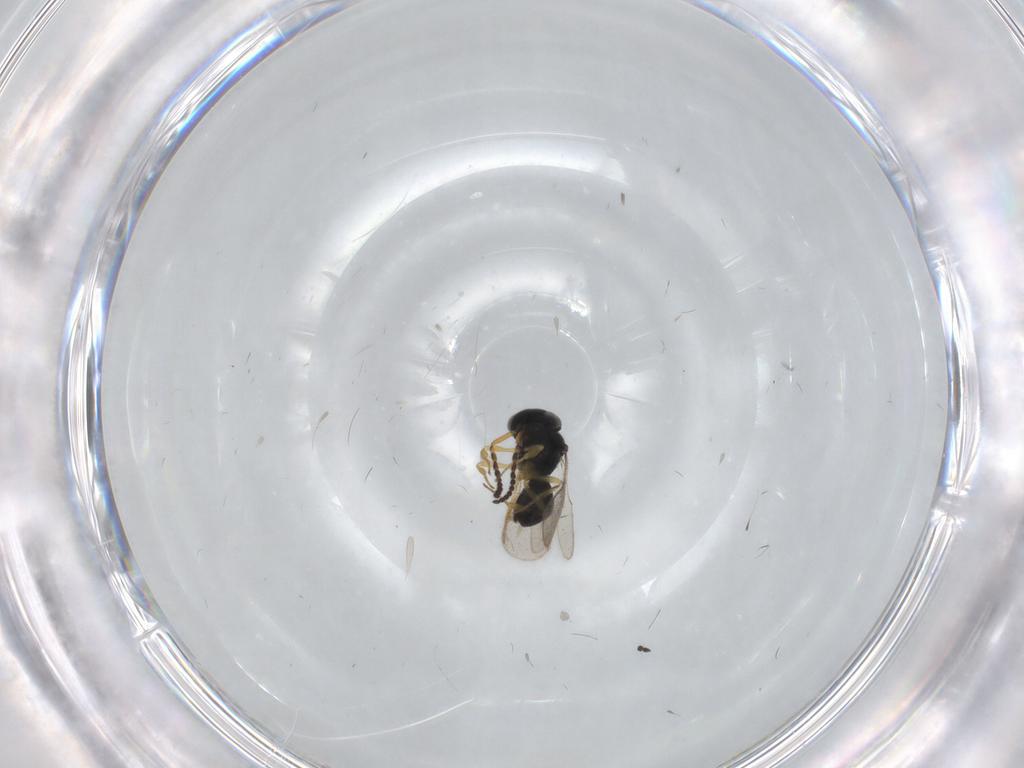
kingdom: Animalia
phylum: Arthropoda
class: Insecta
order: Hymenoptera
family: Scelionidae
